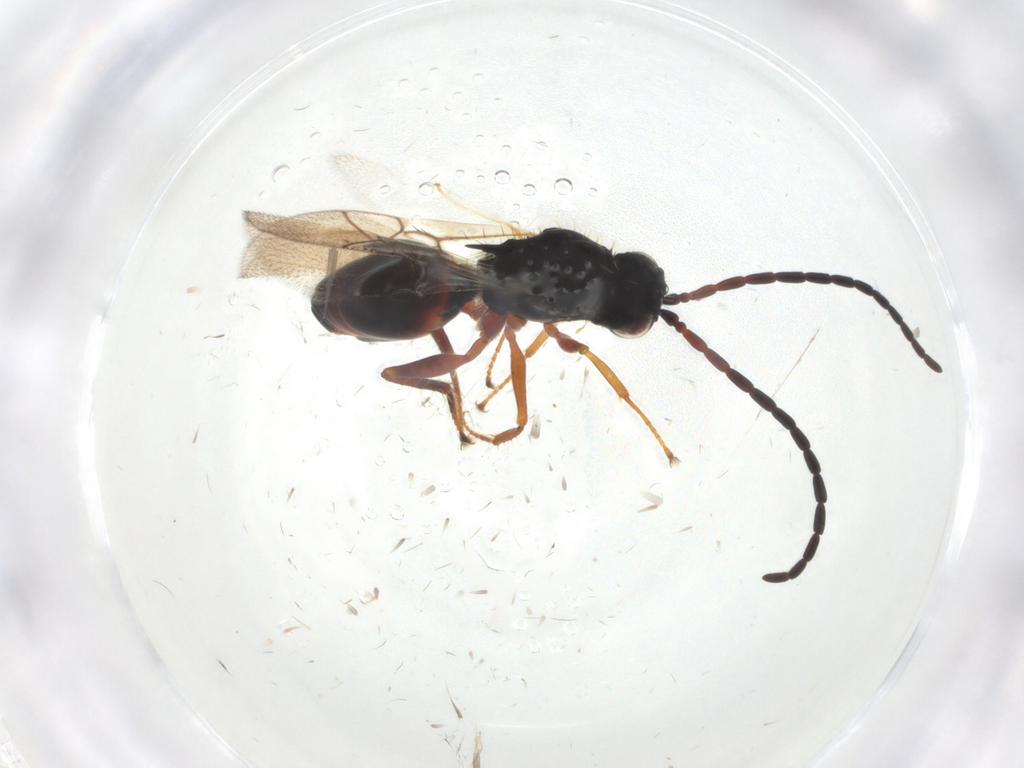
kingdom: Animalia
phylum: Arthropoda
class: Insecta
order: Hymenoptera
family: Figitidae
